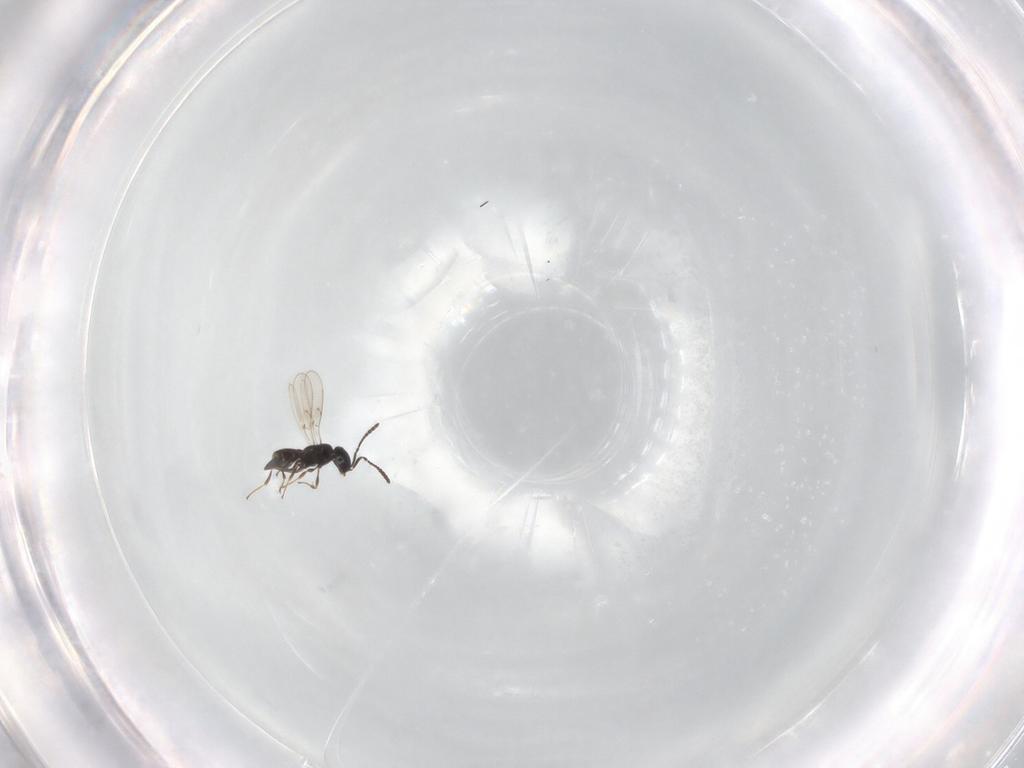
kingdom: Animalia
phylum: Arthropoda
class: Insecta
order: Hymenoptera
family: Scelionidae
